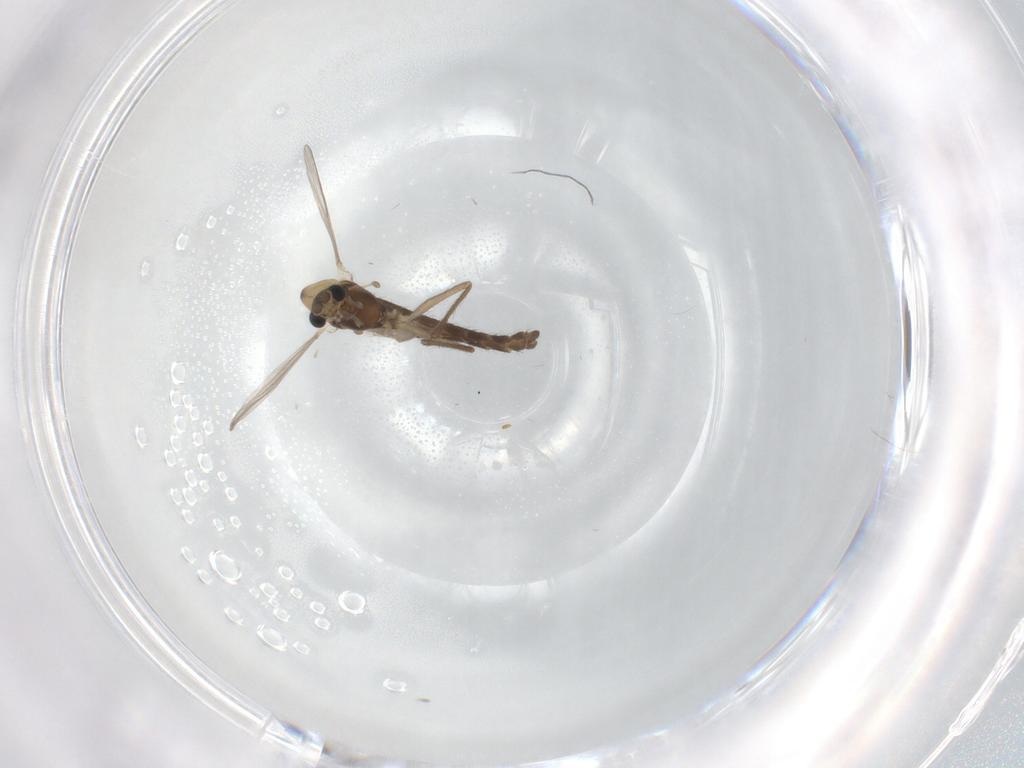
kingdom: Animalia
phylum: Arthropoda
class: Insecta
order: Diptera
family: Chironomidae
